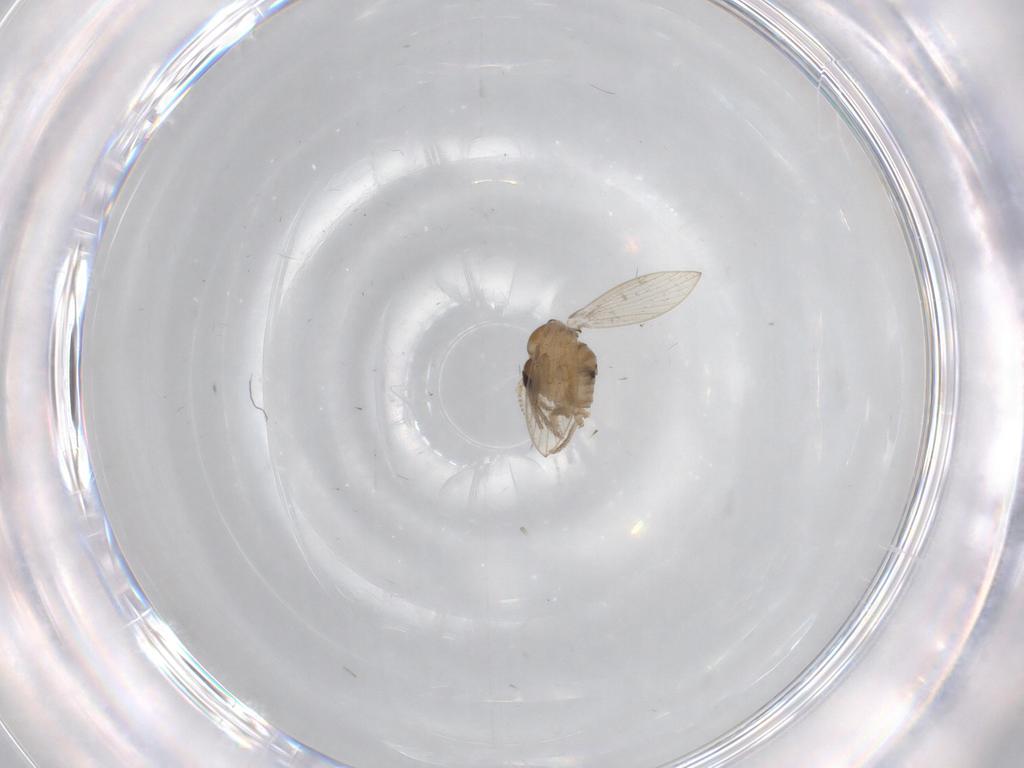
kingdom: Animalia
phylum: Arthropoda
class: Insecta
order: Diptera
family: Psychodidae
